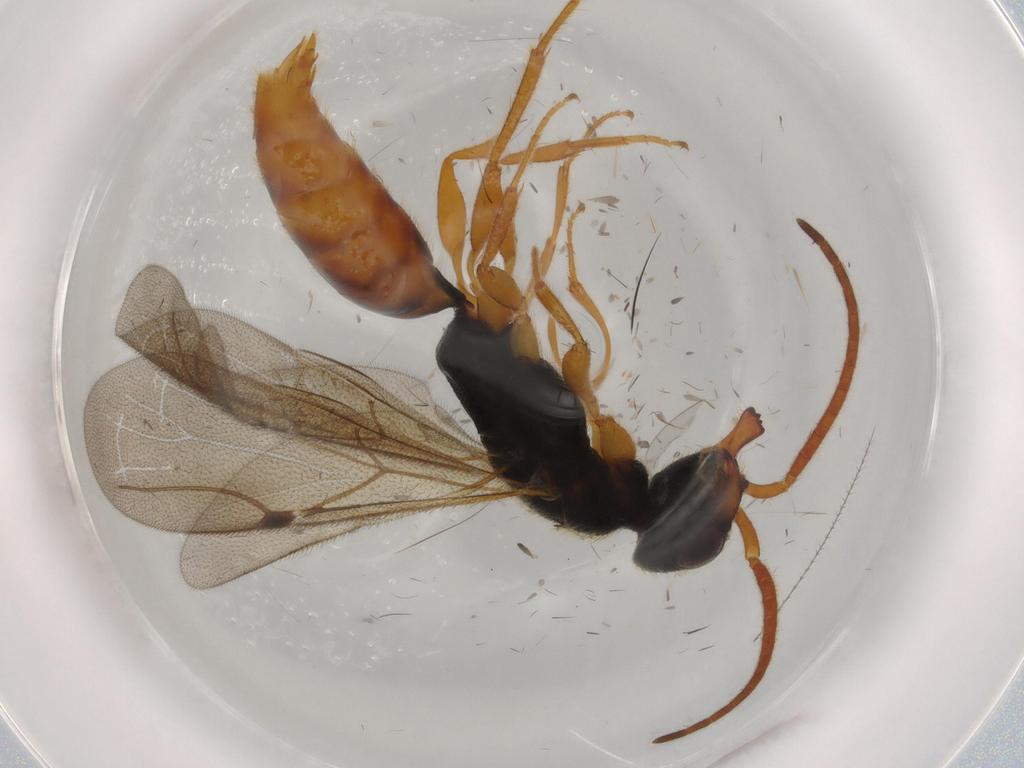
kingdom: Animalia
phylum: Arthropoda
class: Insecta
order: Hymenoptera
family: Bethylidae
